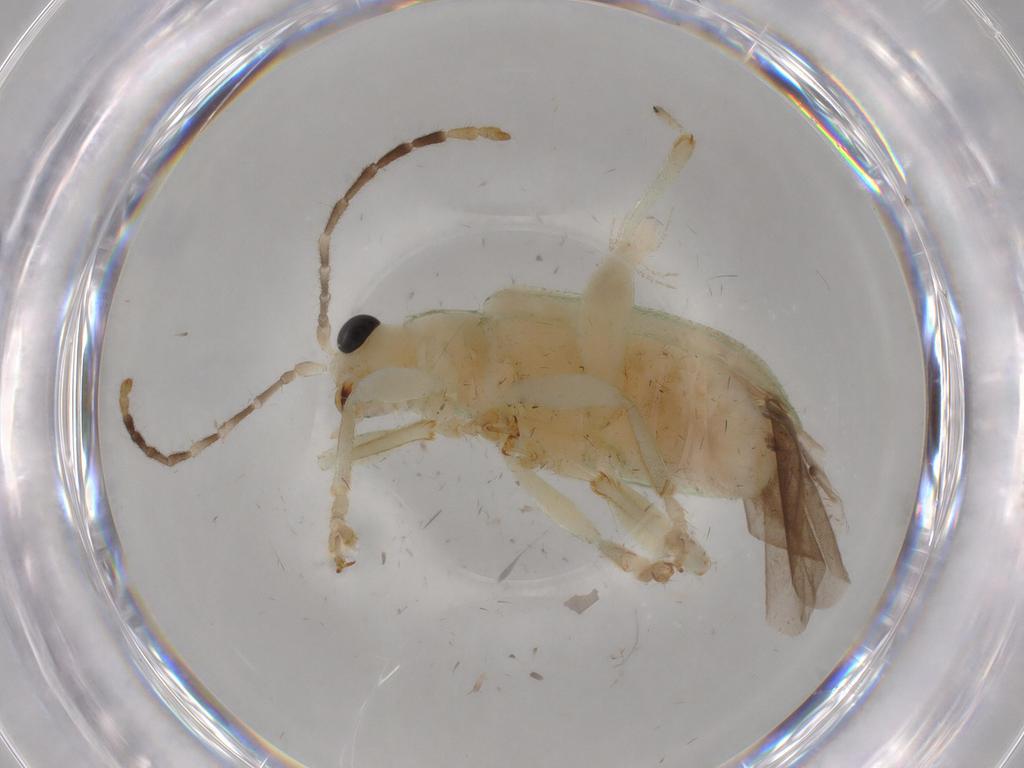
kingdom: Animalia
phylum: Arthropoda
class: Insecta
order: Coleoptera
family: Chrysomelidae
